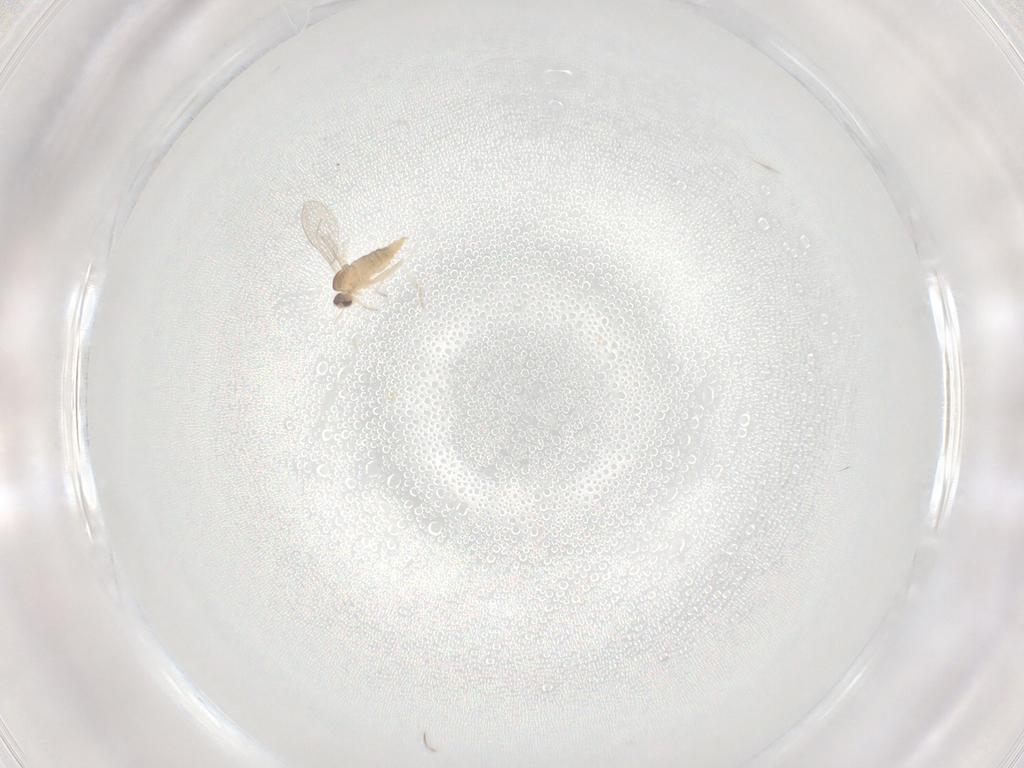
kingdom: Animalia
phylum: Arthropoda
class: Insecta
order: Diptera
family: Cecidomyiidae
